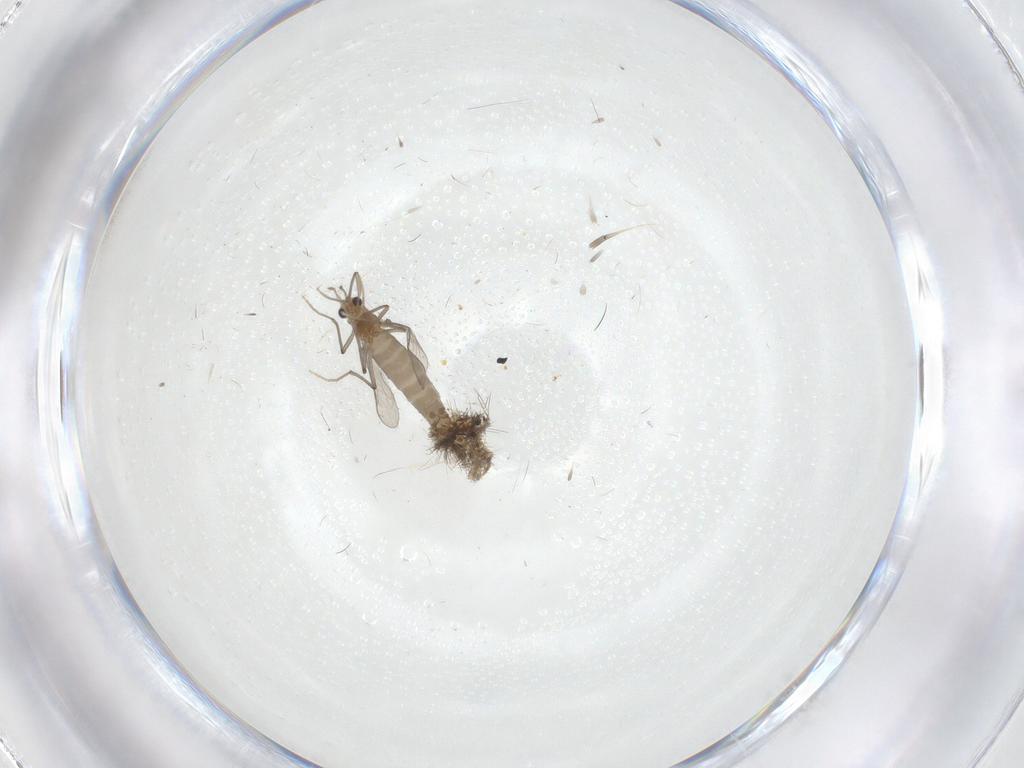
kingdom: Animalia
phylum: Arthropoda
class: Insecta
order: Diptera
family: Chironomidae
